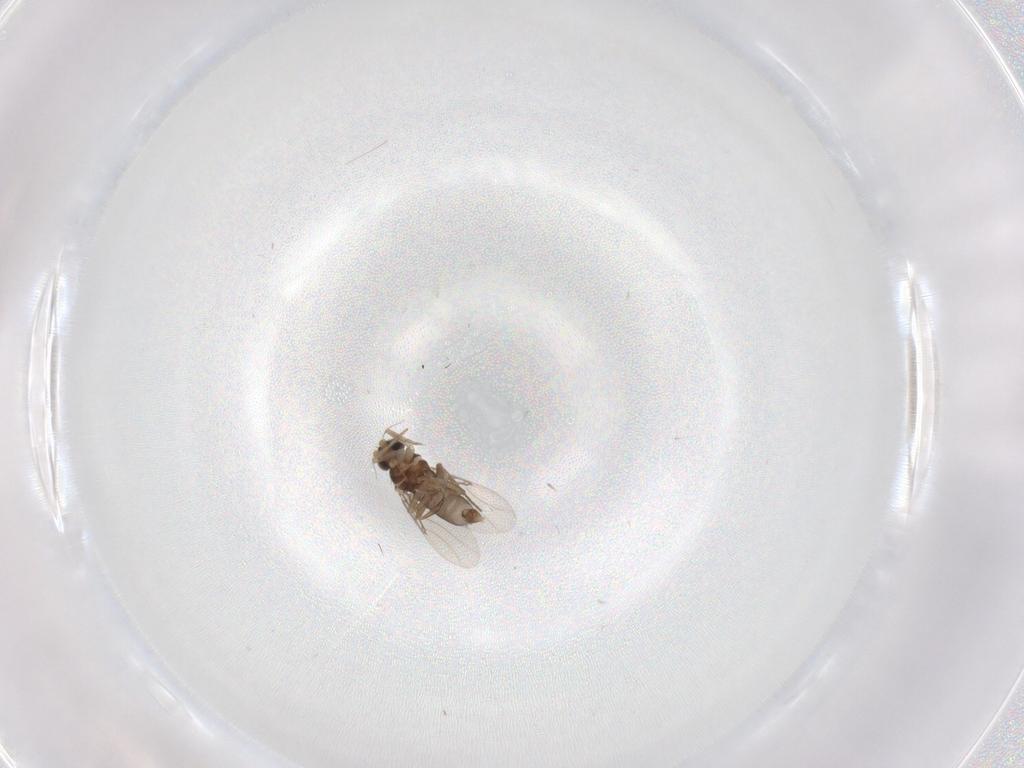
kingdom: Animalia
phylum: Arthropoda
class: Insecta
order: Diptera
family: Phoridae
